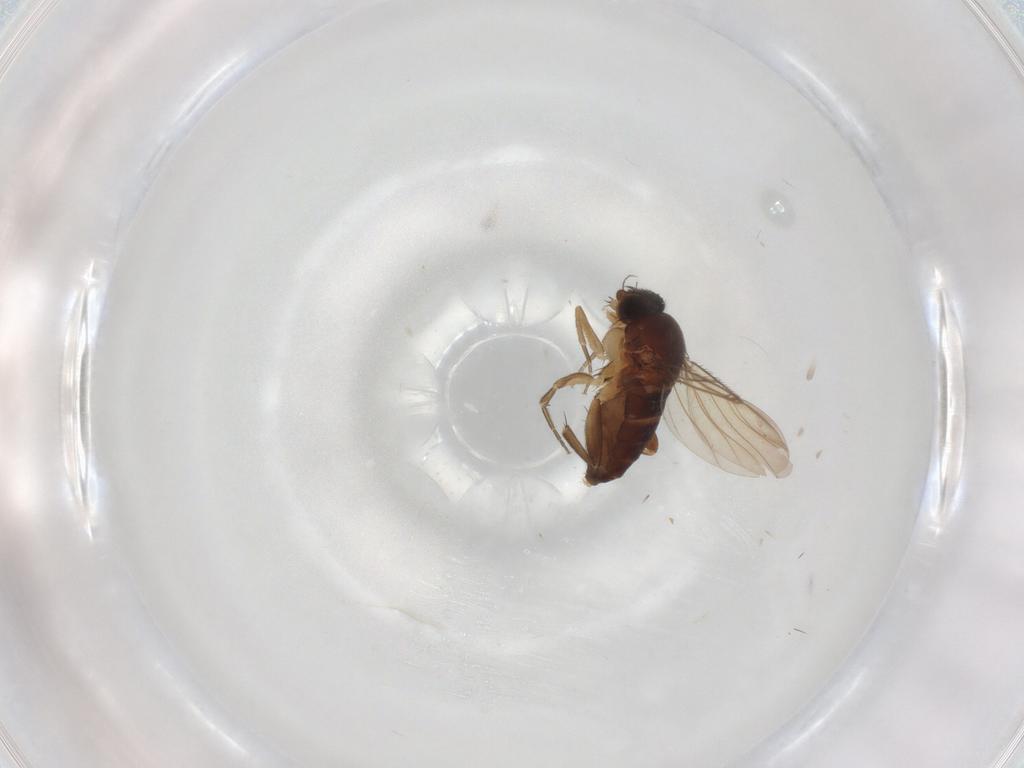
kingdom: Animalia
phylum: Arthropoda
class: Insecta
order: Diptera
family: Phoridae
